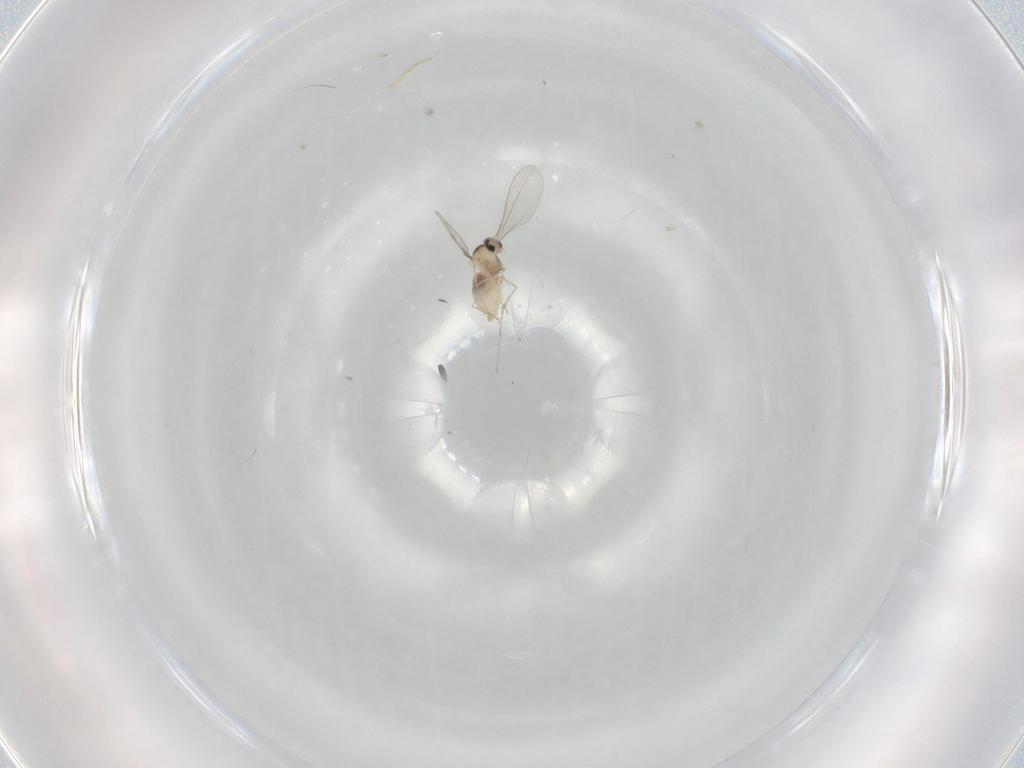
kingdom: Animalia
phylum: Arthropoda
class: Insecta
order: Diptera
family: Cecidomyiidae
